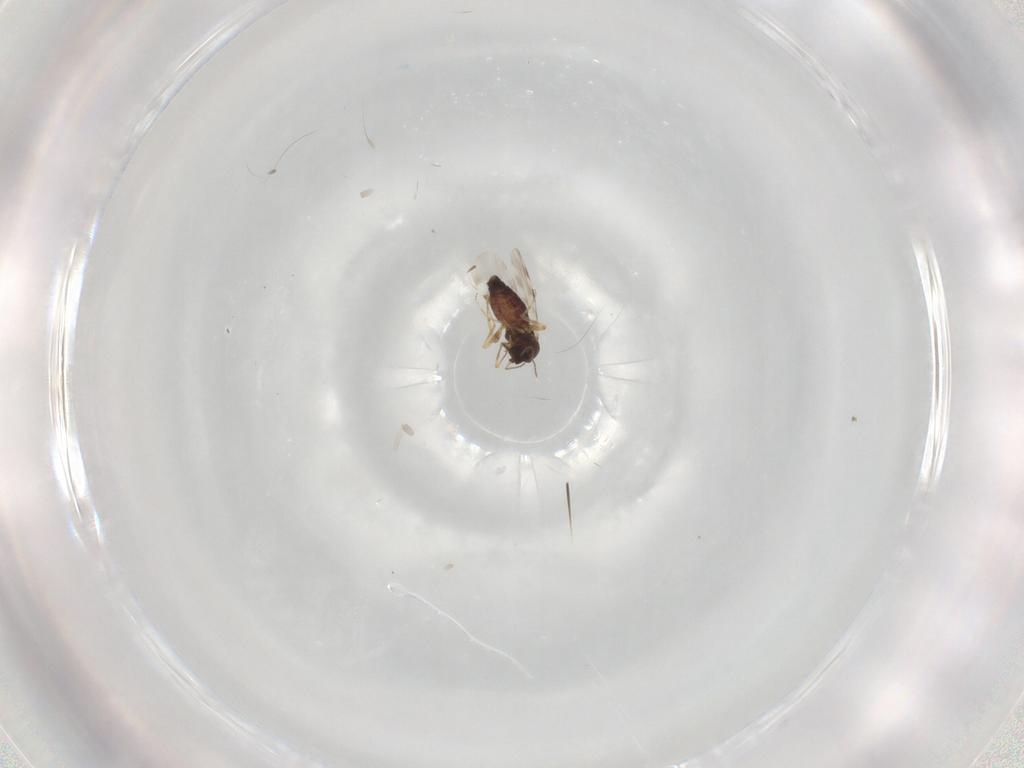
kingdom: Animalia
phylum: Arthropoda
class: Insecta
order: Diptera
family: Ceratopogonidae
